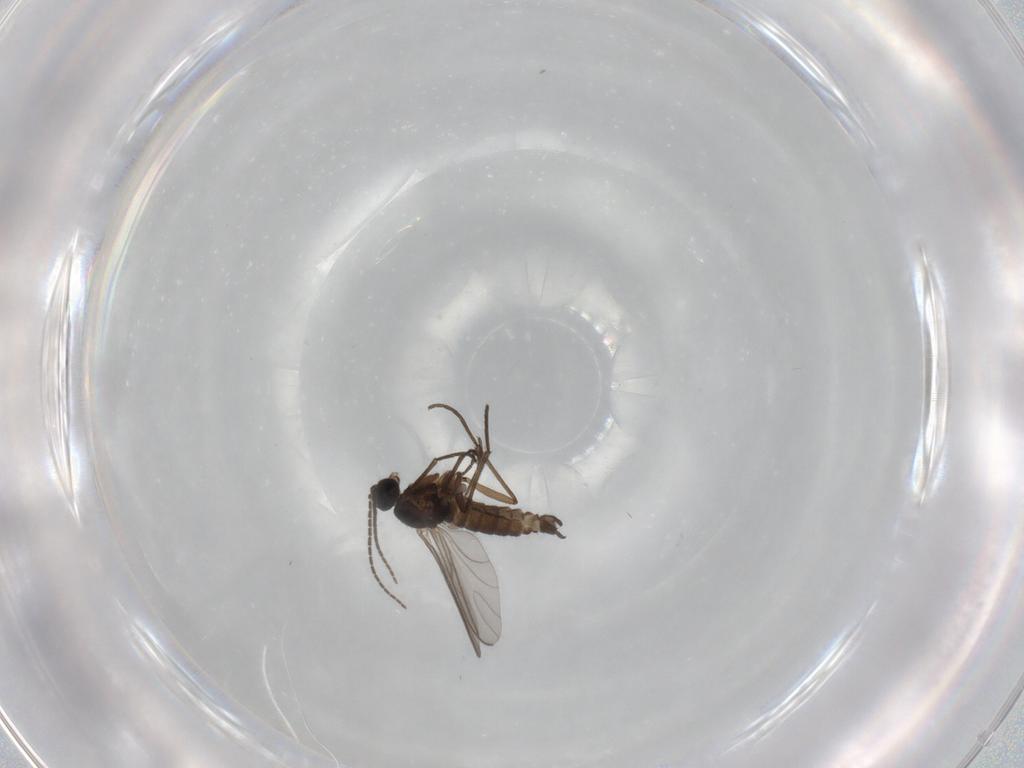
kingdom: Animalia
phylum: Arthropoda
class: Insecta
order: Diptera
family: Sciaridae
